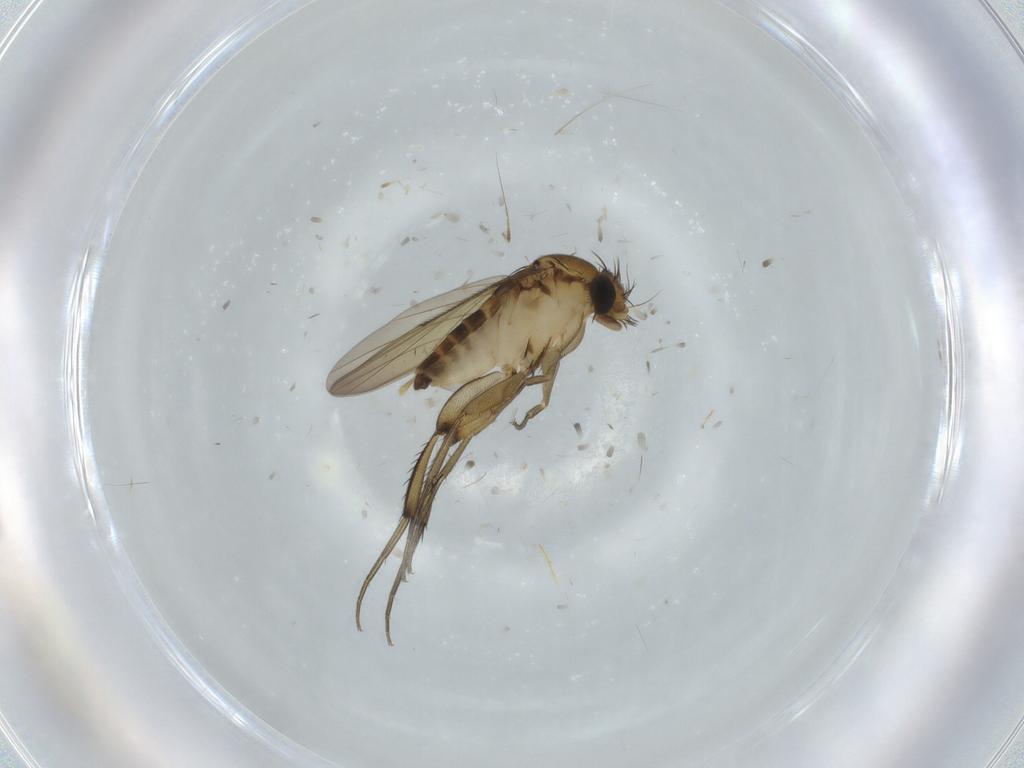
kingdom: Animalia
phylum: Arthropoda
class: Insecta
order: Diptera
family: Phoridae
